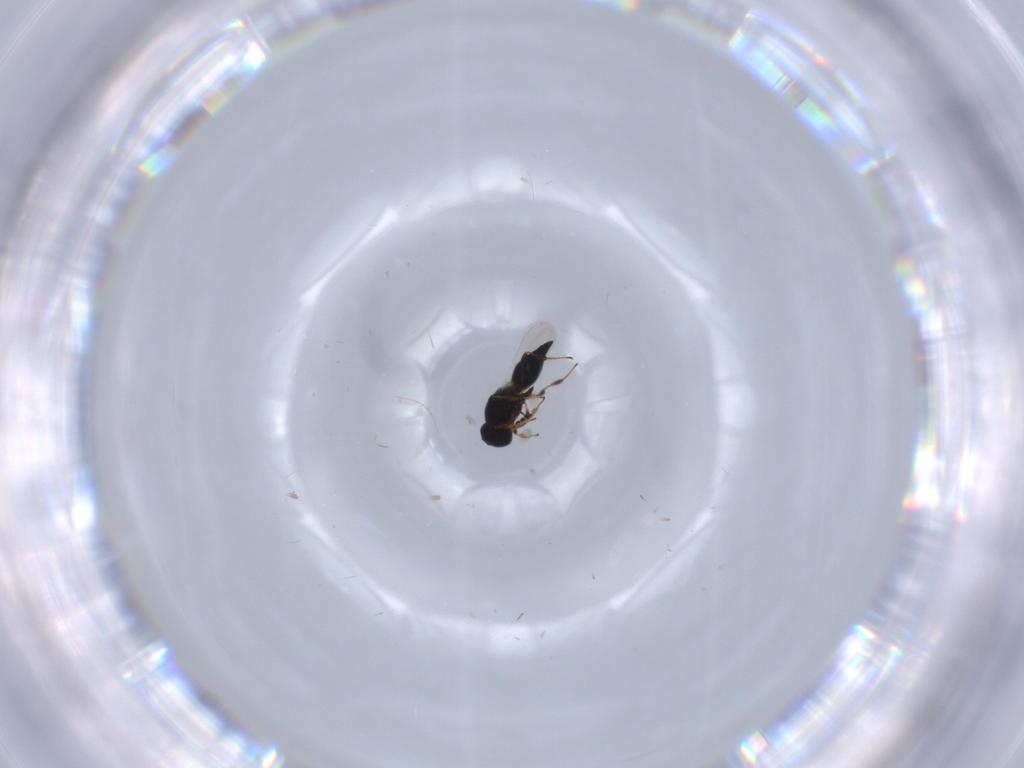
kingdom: Animalia
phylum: Arthropoda
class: Insecta
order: Hymenoptera
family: Platygastridae
